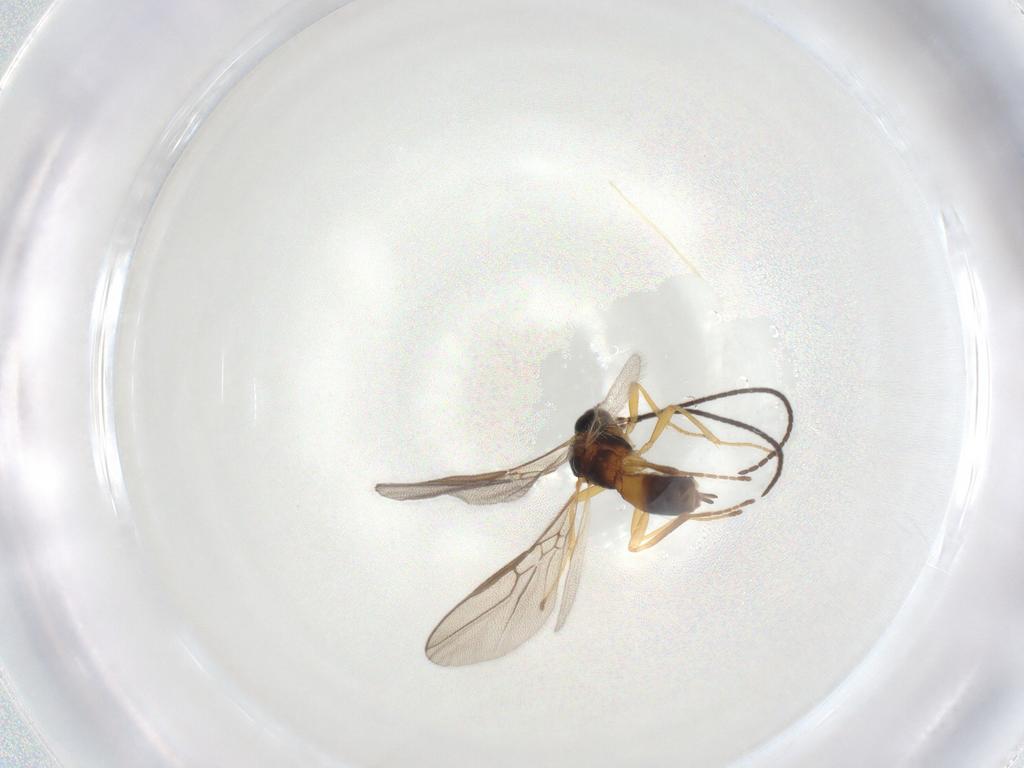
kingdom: Animalia
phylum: Arthropoda
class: Insecta
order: Hymenoptera
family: Braconidae
